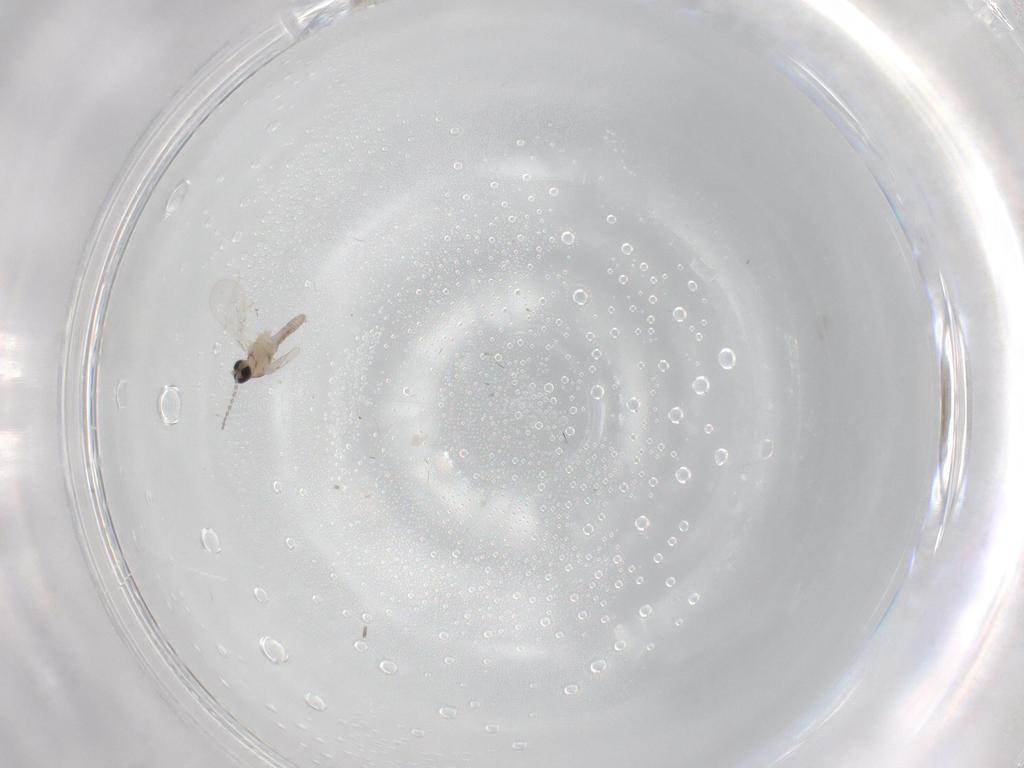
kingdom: Animalia
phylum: Arthropoda
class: Insecta
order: Diptera
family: Cecidomyiidae
